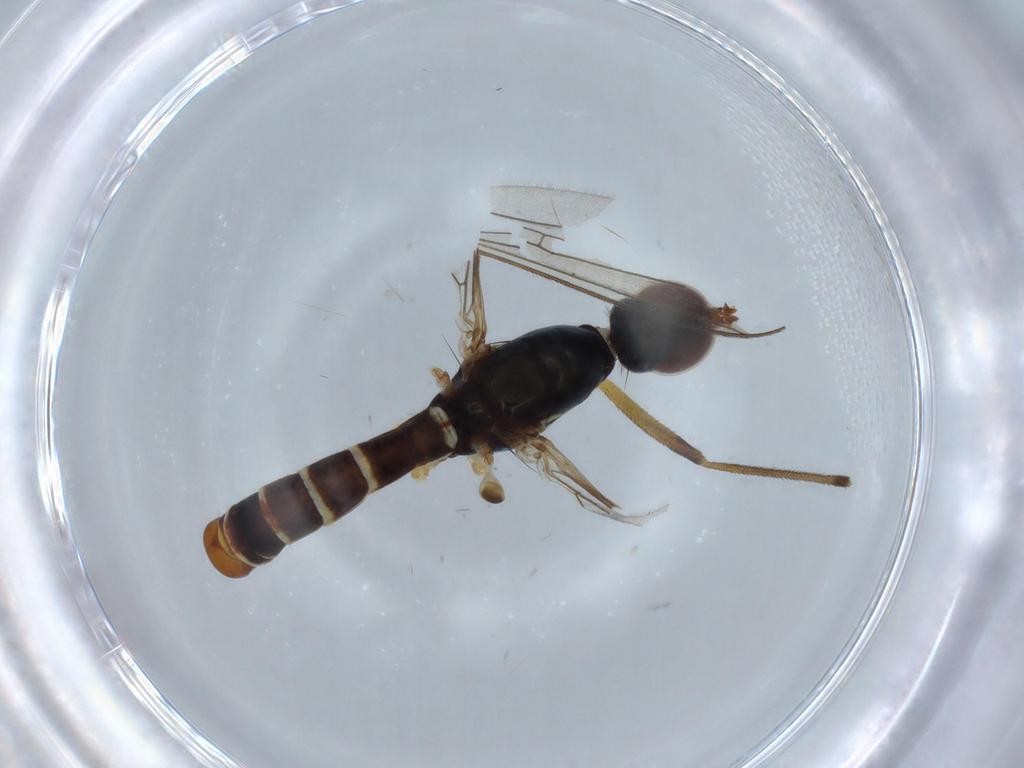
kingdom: Animalia
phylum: Arthropoda
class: Insecta
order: Diptera
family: Micropezidae
